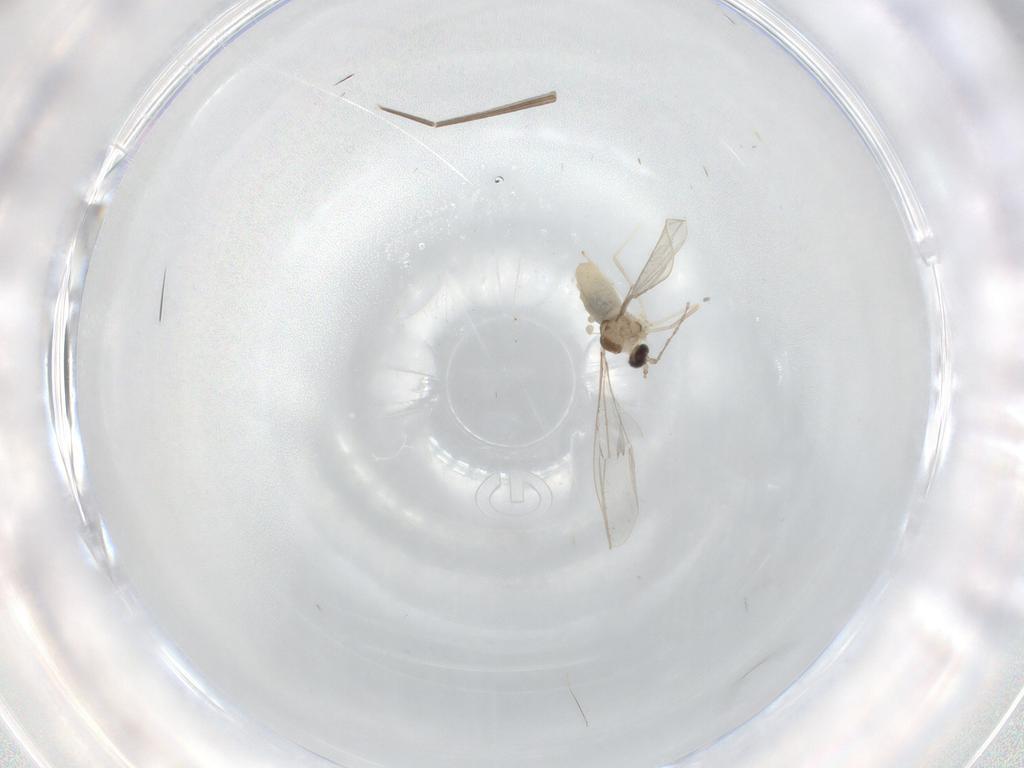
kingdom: Animalia
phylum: Arthropoda
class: Insecta
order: Diptera
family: Cecidomyiidae
